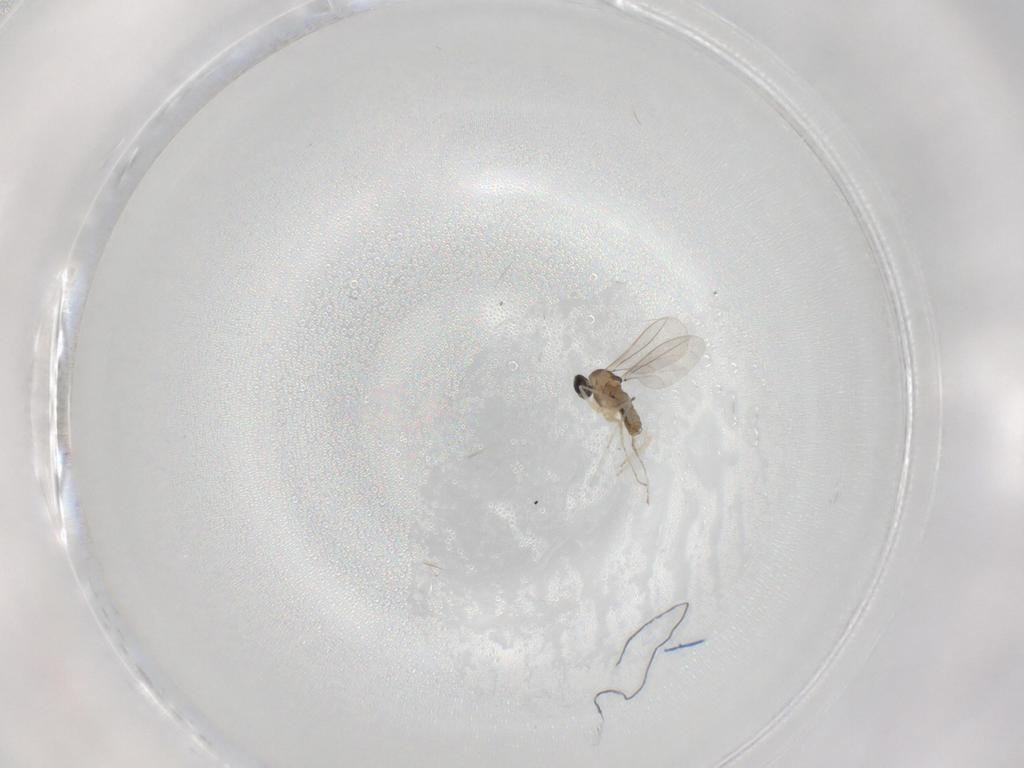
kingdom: Animalia
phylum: Arthropoda
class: Insecta
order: Diptera
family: Cecidomyiidae
